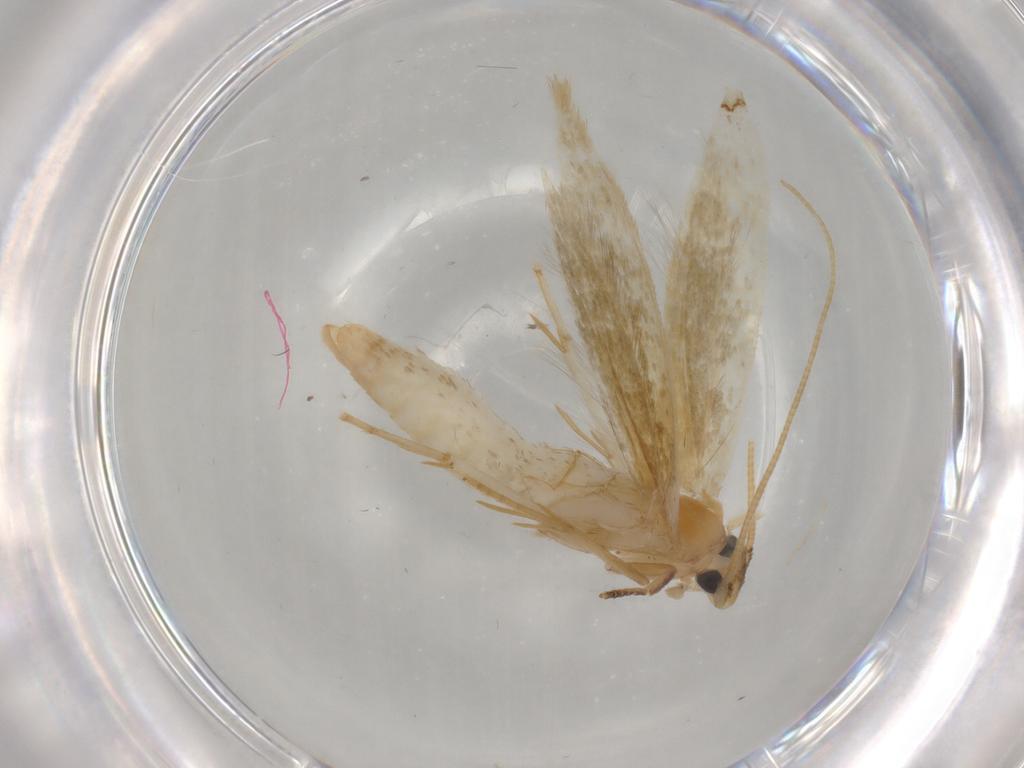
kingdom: Animalia
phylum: Arthropoda
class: Insecta
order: Lepidoptera
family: Cosmopterigidae
